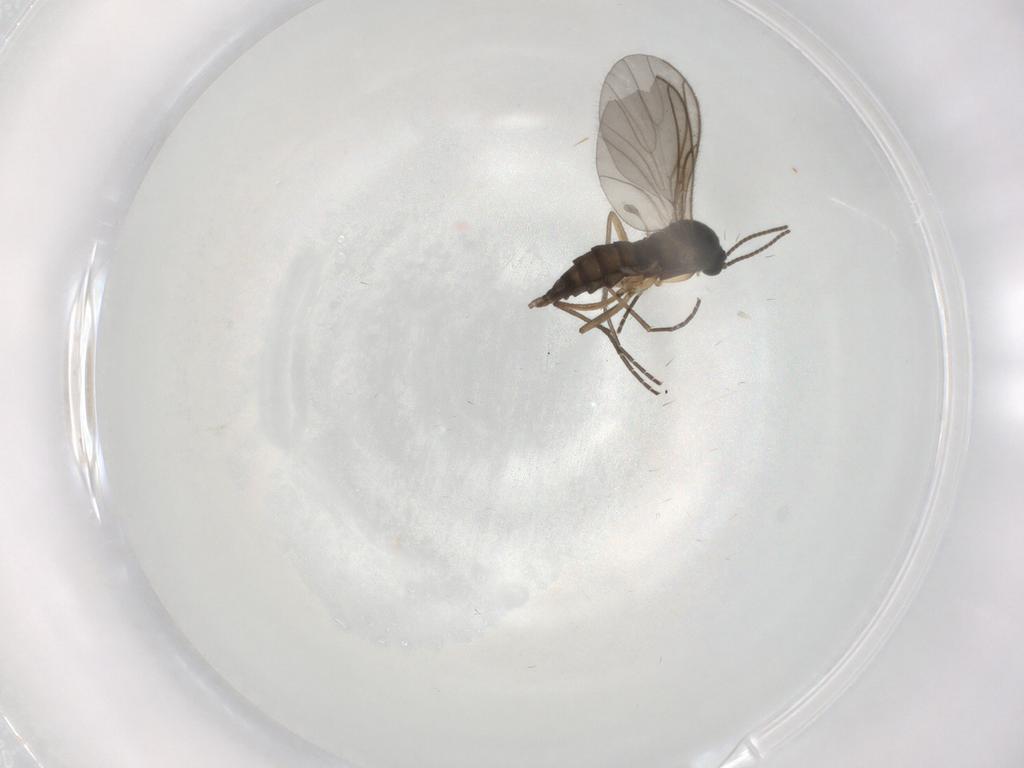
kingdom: Animalia
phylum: Arthropoda
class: Insecta
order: Diptera
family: Sciaridae
